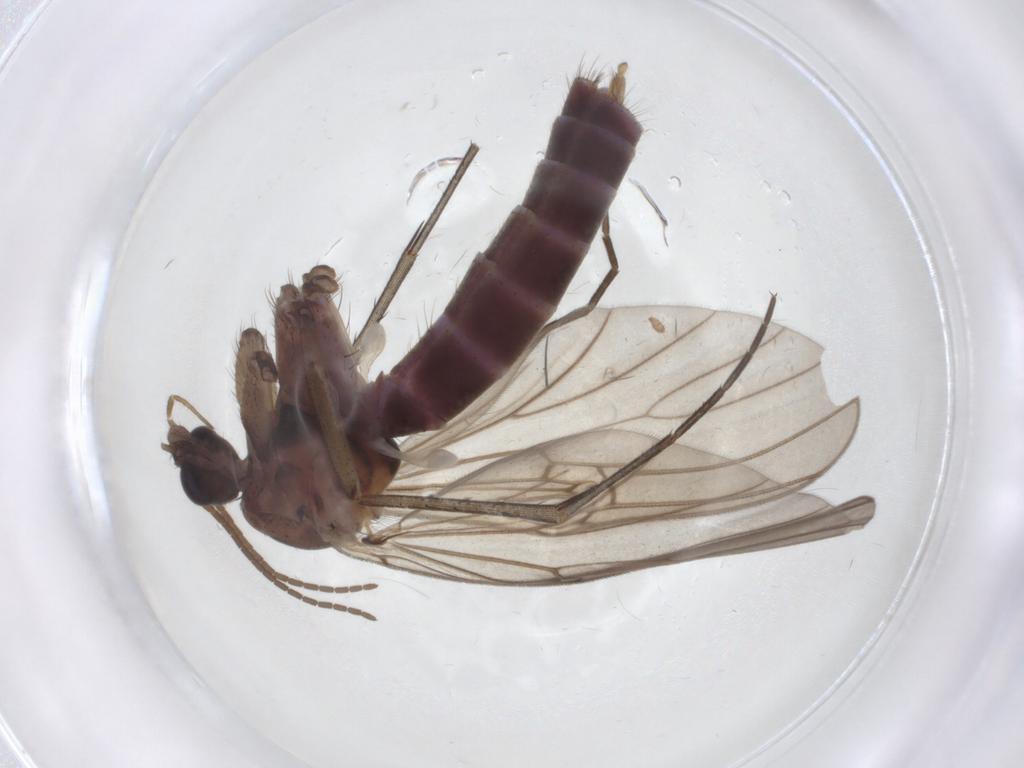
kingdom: Animalia
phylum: Arthropoda
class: Insecta
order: Diptera
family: Mycetophilidae
